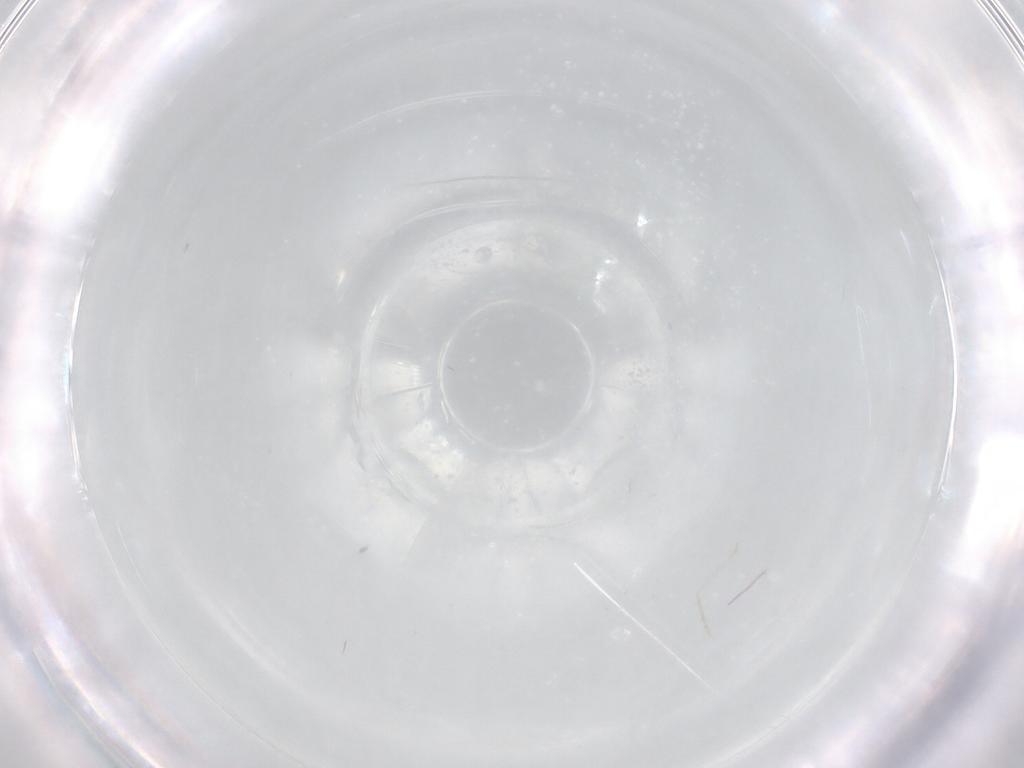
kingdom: Animalia
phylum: Arthropoda
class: Insecta
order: Diptera
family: Cecidomyiidae
